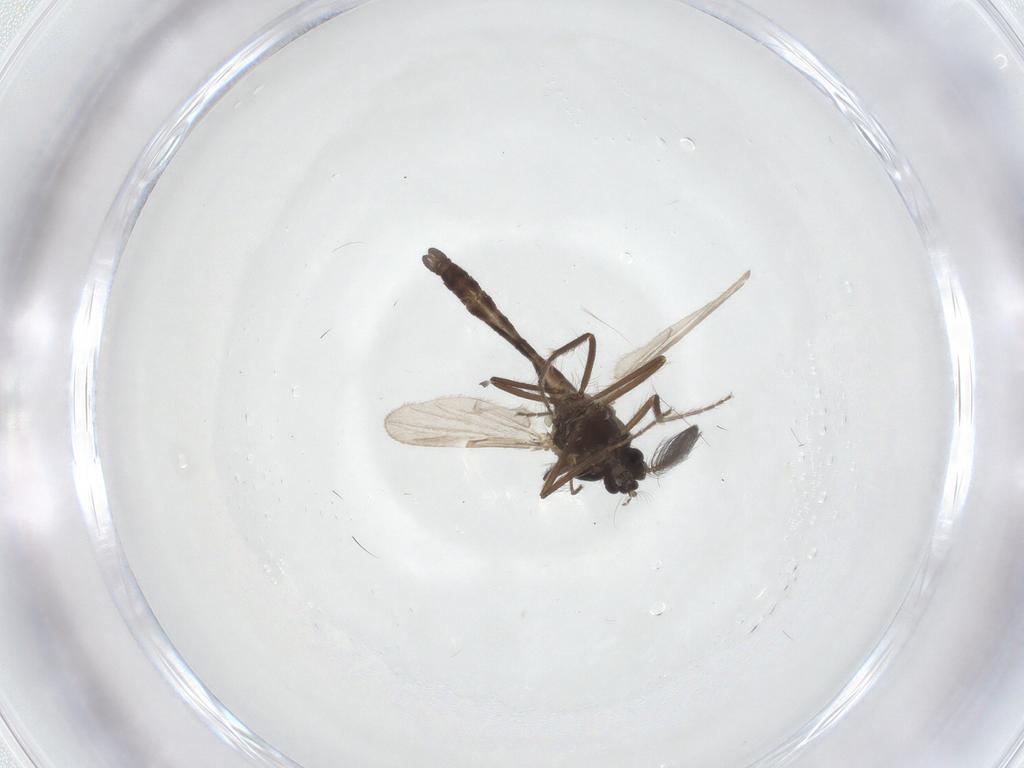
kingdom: Animalia
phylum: Arthropoda
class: Insecta
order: Diptera
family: Ceratopogonidae
